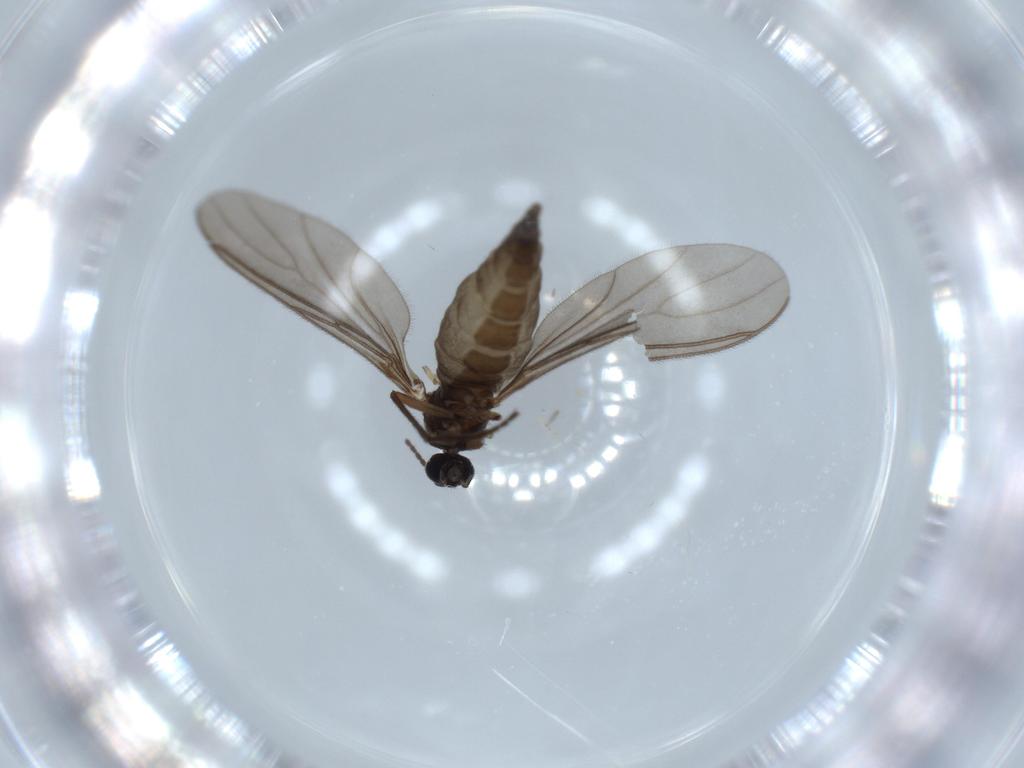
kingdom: Animalia
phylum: Arthropoda
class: Insecta
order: Diptera
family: Sciaridae
